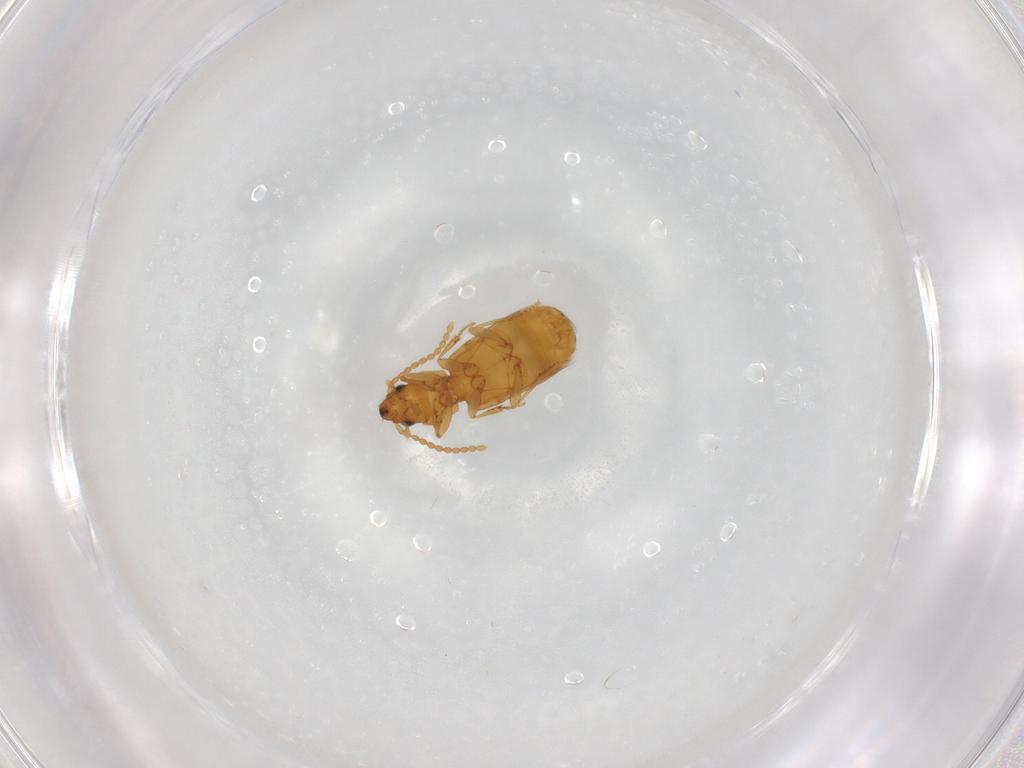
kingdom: Animalia
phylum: Arthropoda
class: Insecta
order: Coleoptera
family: Carabidae
